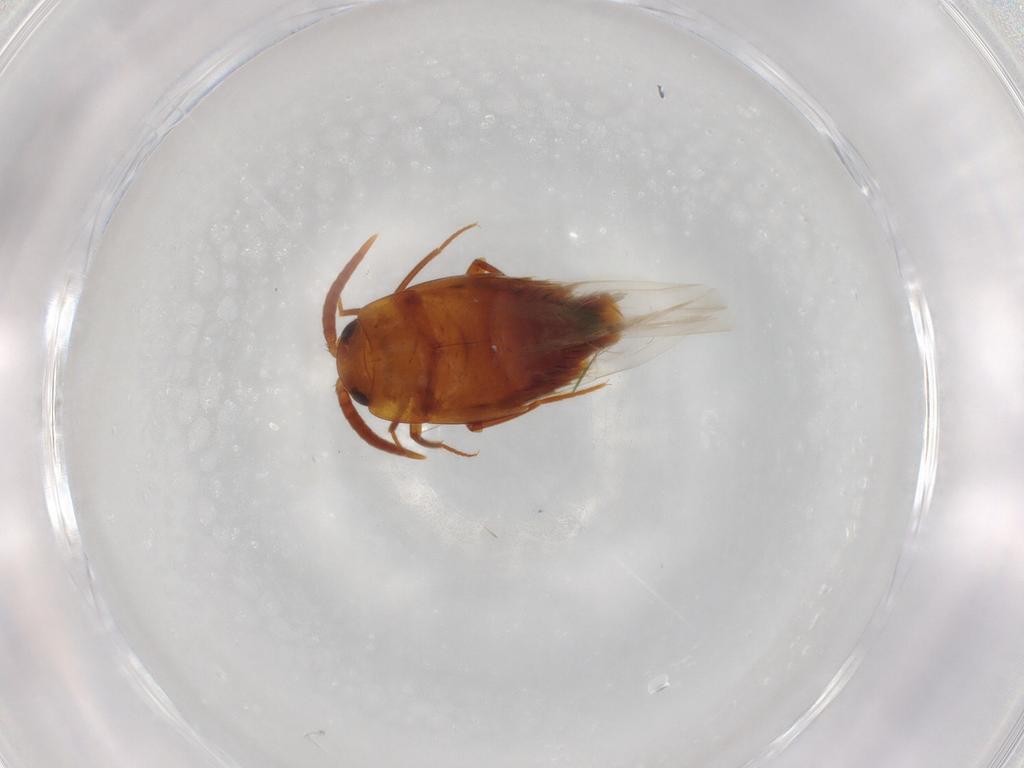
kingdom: Animalia
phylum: Arthropoda
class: Insecta
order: Coleoptera
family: Staphylinidae
